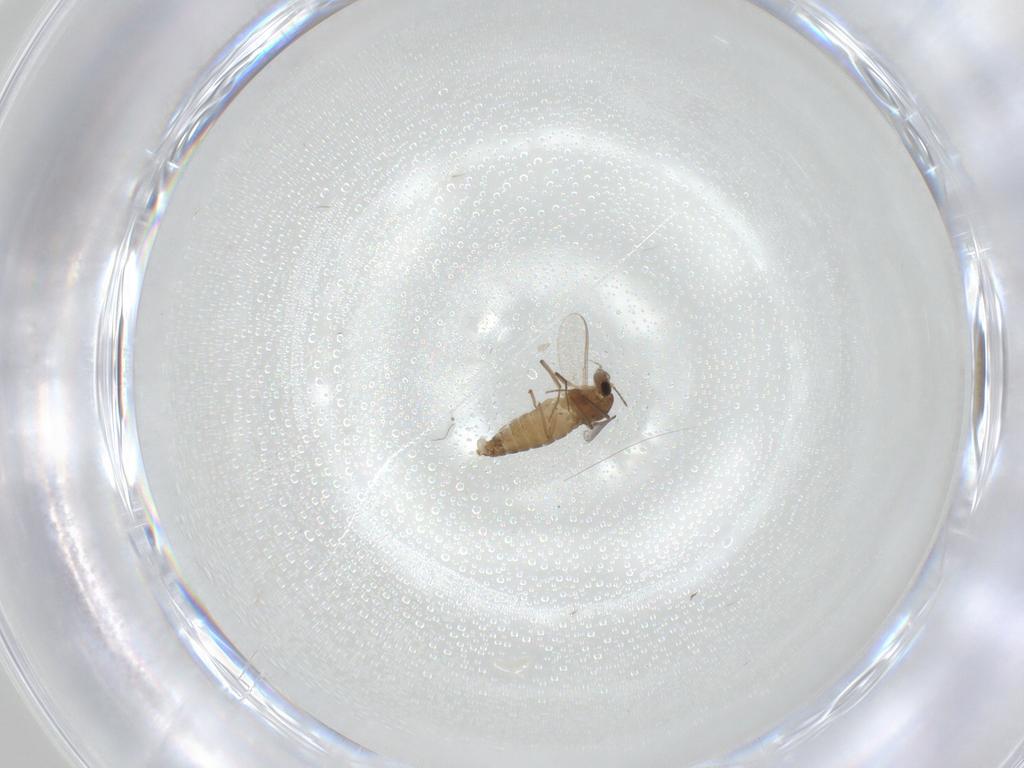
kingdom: Animalia
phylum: Arthropoda
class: Insecta
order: Diptera
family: Chironomidae
